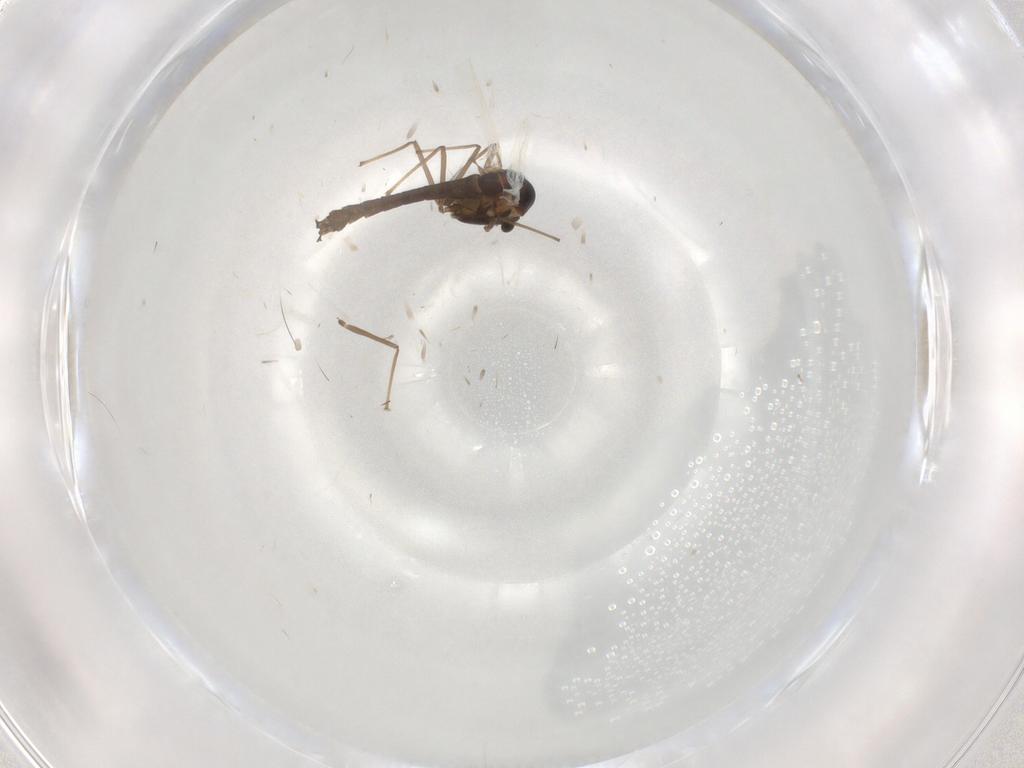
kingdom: Animalia
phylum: Arthropoda
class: Insecta
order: Diptera
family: Chironomidae
